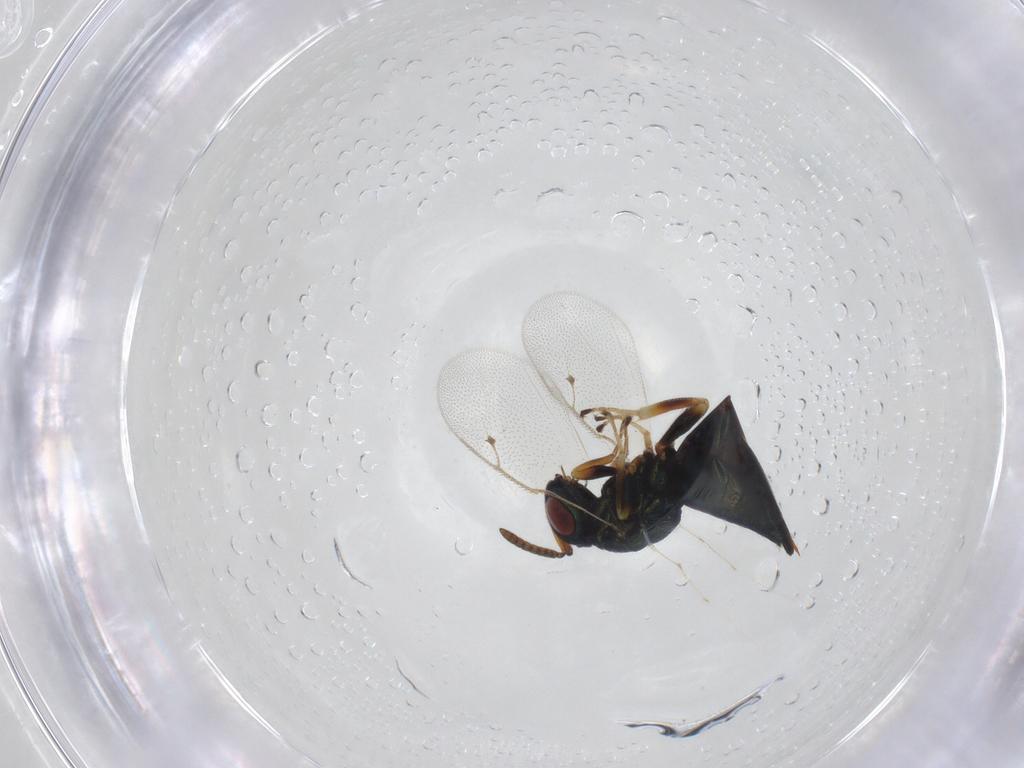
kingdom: Animalia
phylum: Arthropoda
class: Insecta
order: Hymenoptera
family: Pteromalidae
